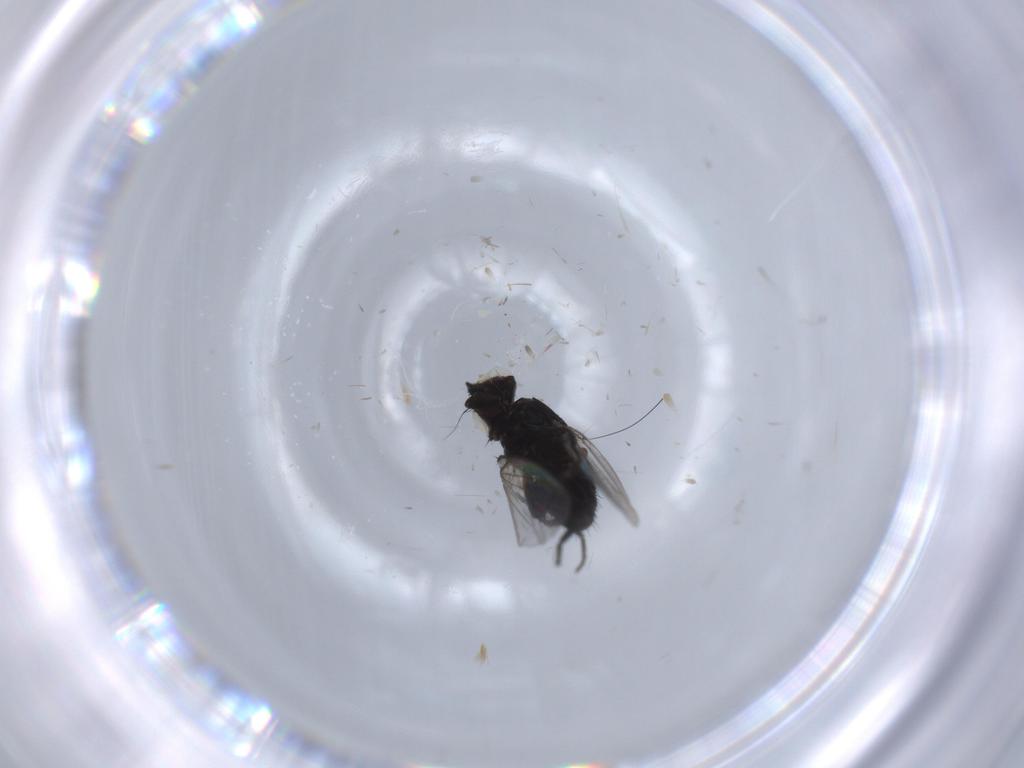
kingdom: Animalia
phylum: Arthropoda
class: Insecta
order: Diptera
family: Milichiidae
